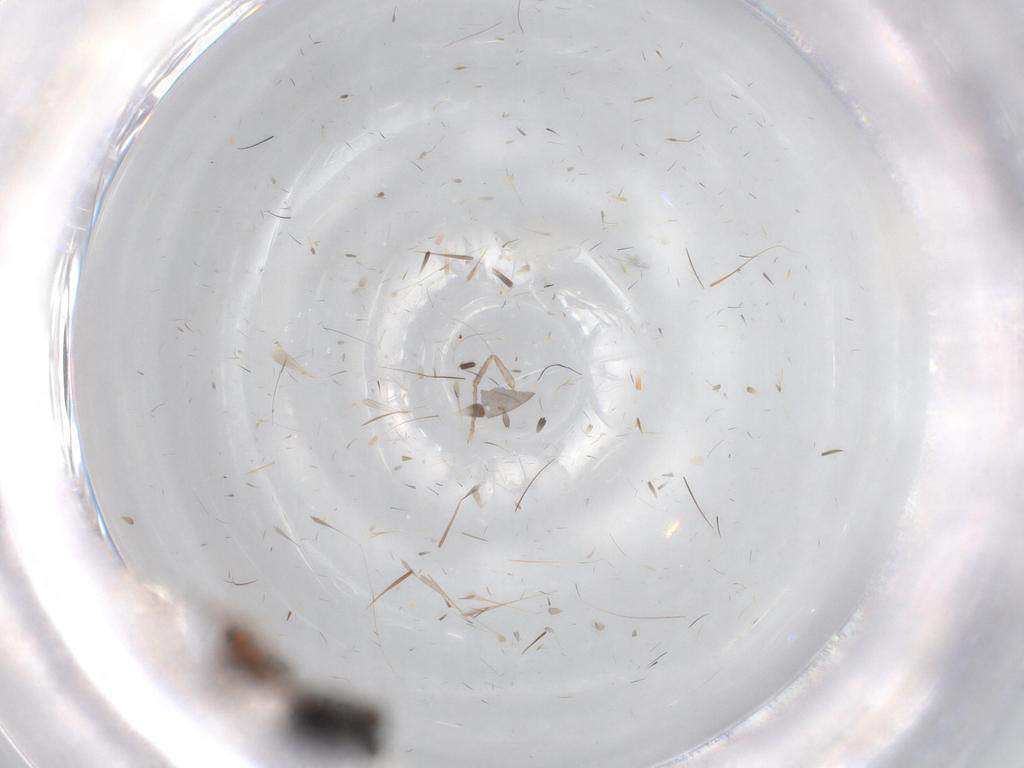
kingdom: Animalia
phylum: Arthropoda
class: Insecta
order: Diptera
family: Sciaridae
